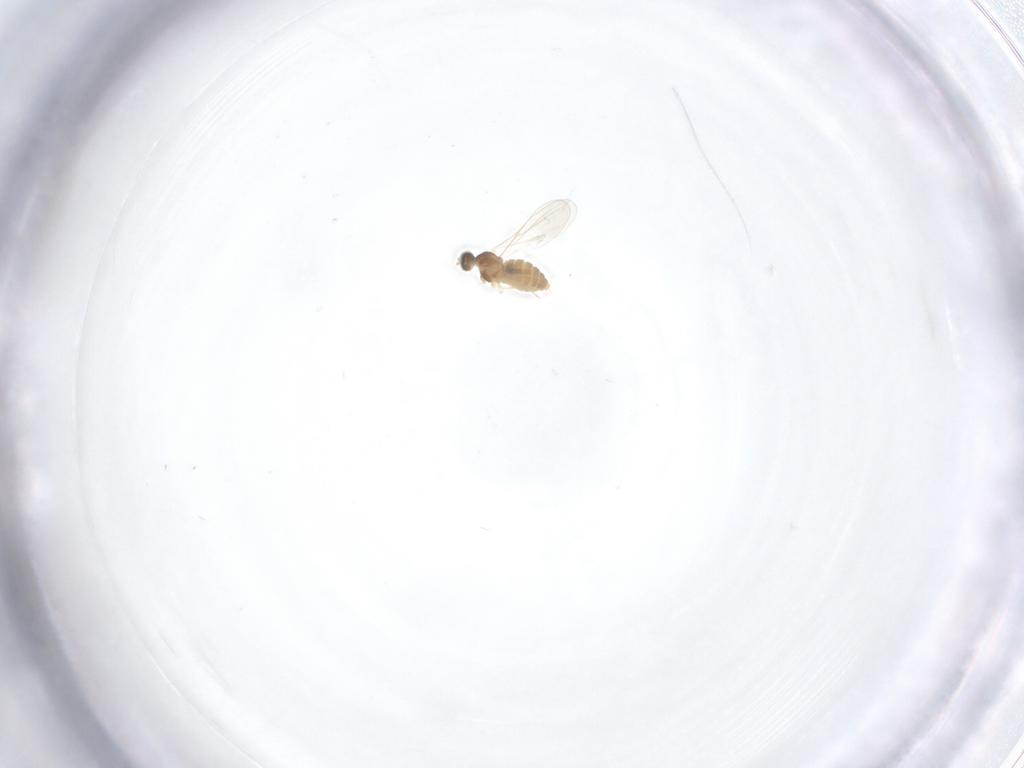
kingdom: Animalia
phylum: Arthropoda
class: Insecta
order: Diptera
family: Cecidomyiidae
